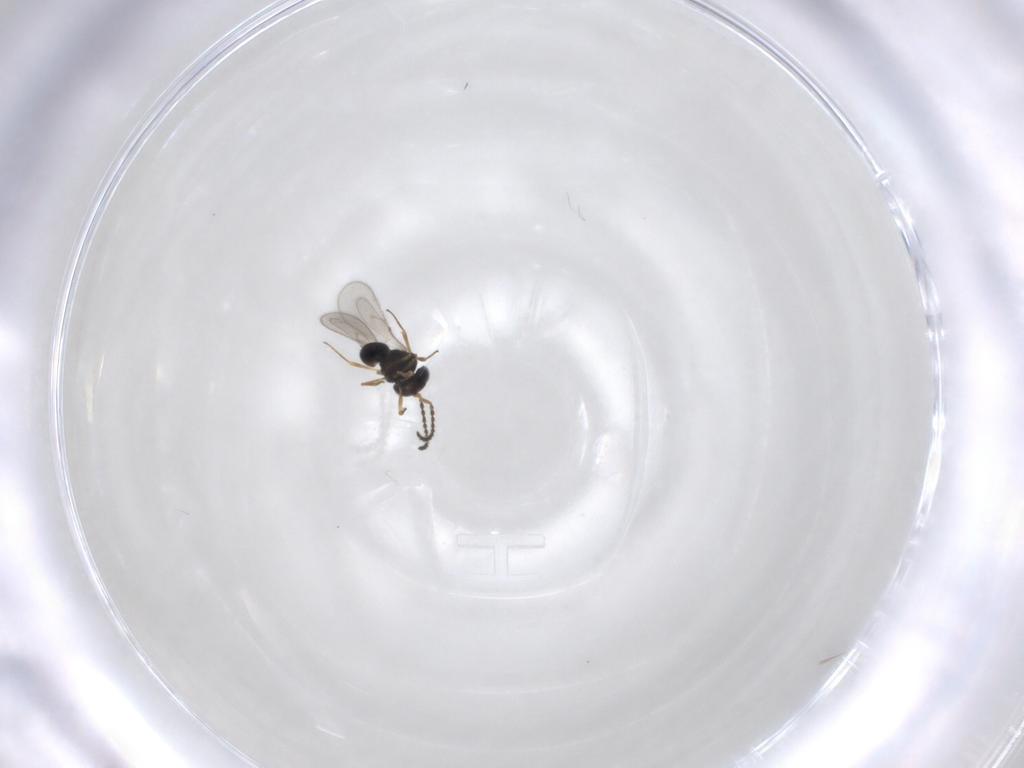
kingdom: Animalia
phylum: Arthropoda
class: Insecta
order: Hymenoptera
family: Scelionidae
